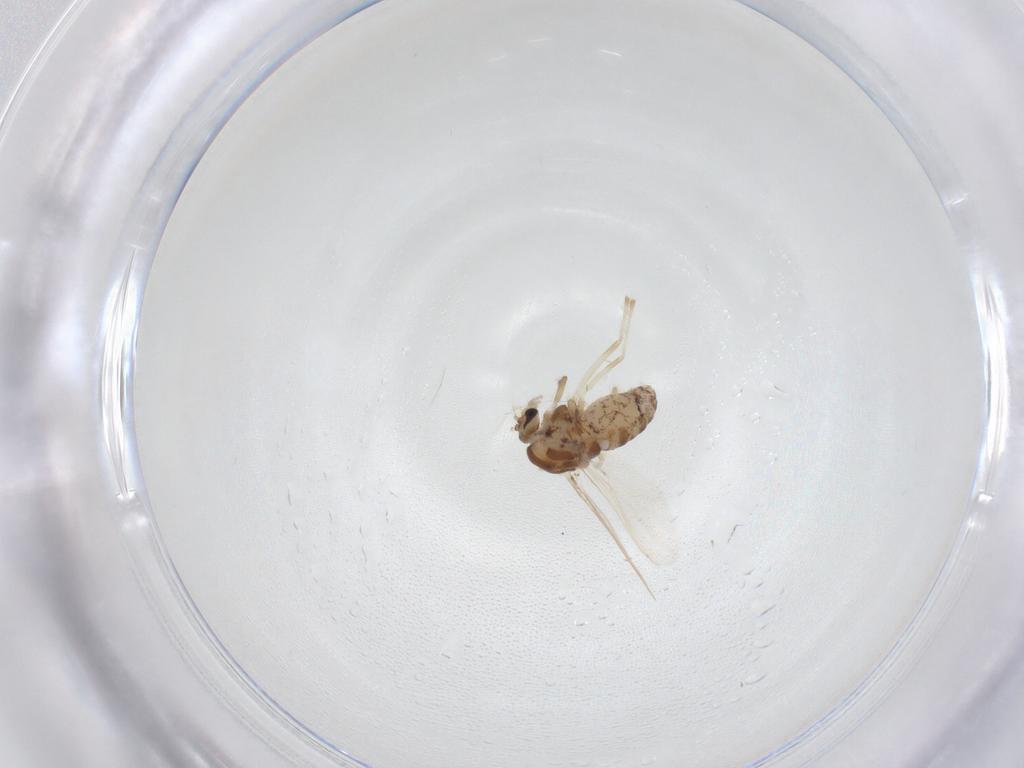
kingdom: Animalia
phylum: Arthropoda
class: Insecta
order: Diptera
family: Chironomidae
